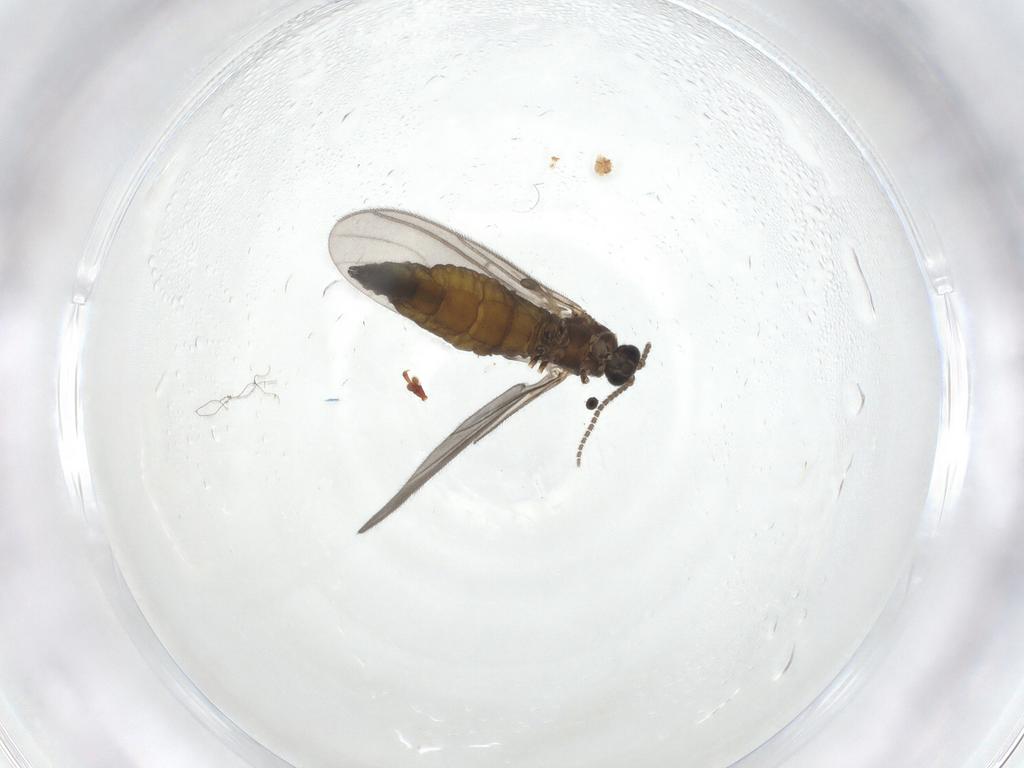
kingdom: Animalia
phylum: Arthropoda
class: Insecta
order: Diptera
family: Sciaridae
